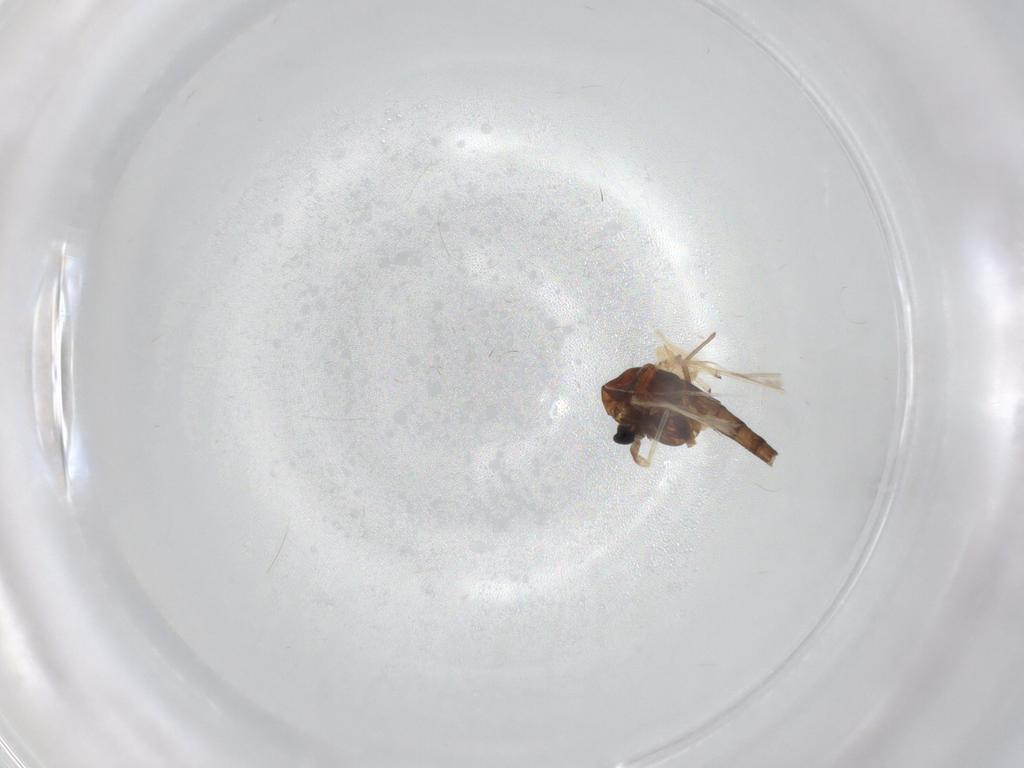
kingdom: Animalia
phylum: Arthropoda
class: Insecta
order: Diptera
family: Chironomidae
